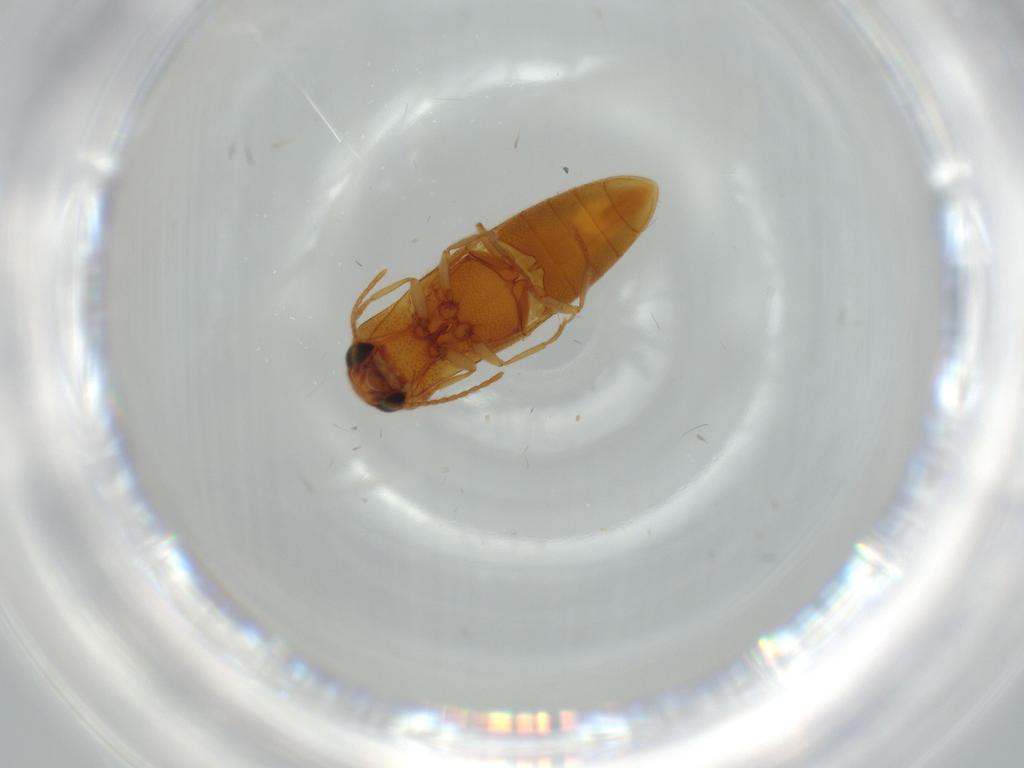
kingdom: Animalia
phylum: Arthropoda
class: Insecta
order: Coleoptera
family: Elateridae
